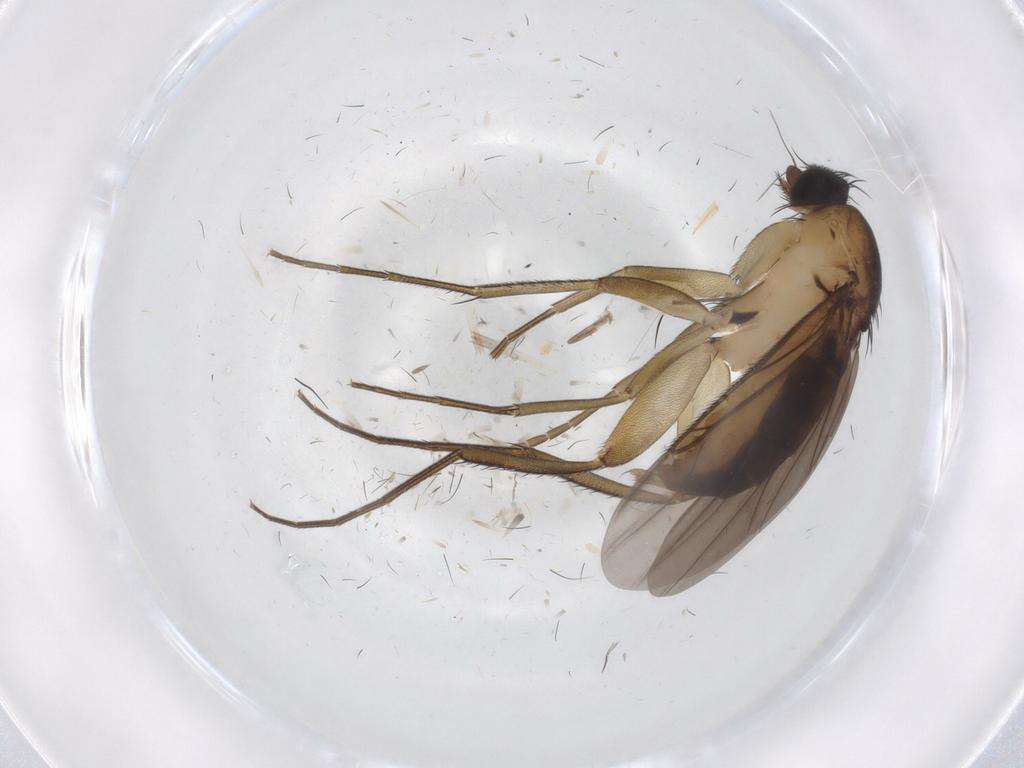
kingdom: Animalia
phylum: Arthropoda
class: Insecta
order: Diptera
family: Phoridae
